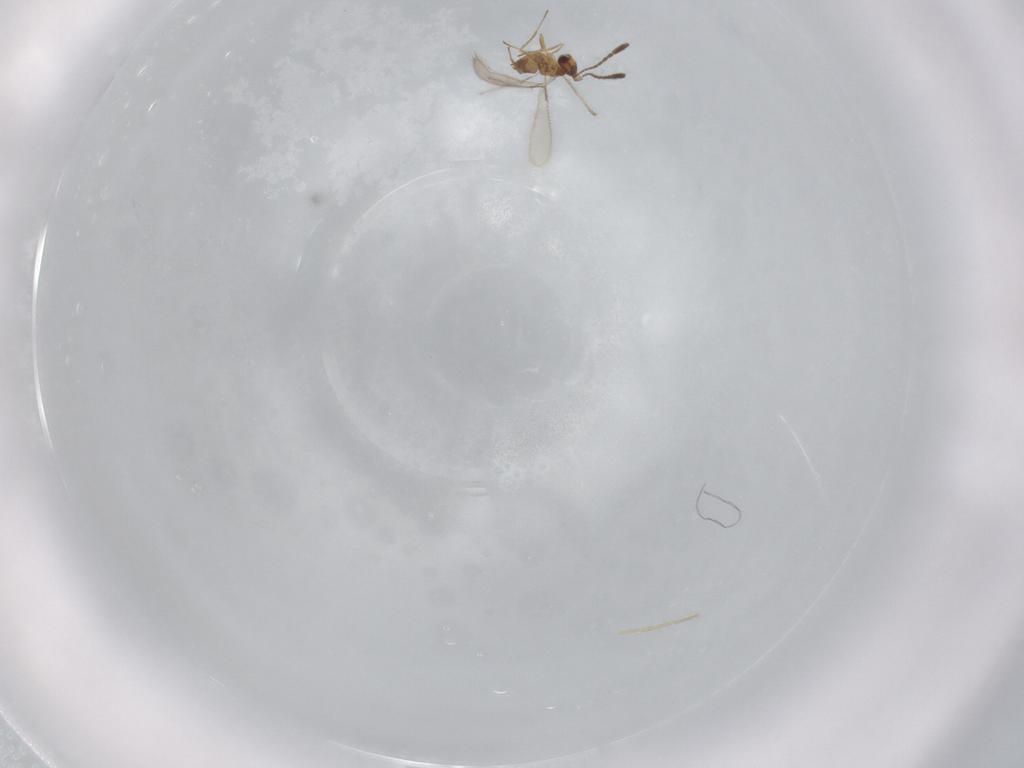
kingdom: Animalia
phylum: Arthropoda
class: Insecta
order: Hymenoptera
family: Mymaridae
